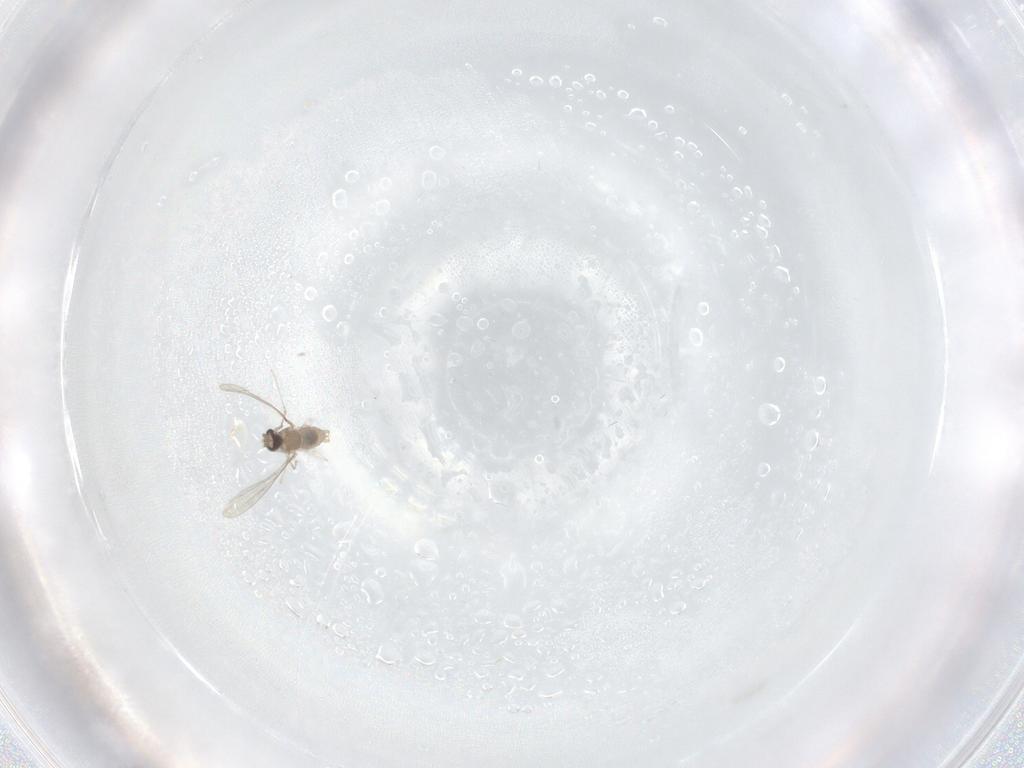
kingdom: Animalia
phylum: Arthropoda
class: Insecta
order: Diptera
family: Cecidomyiidae
